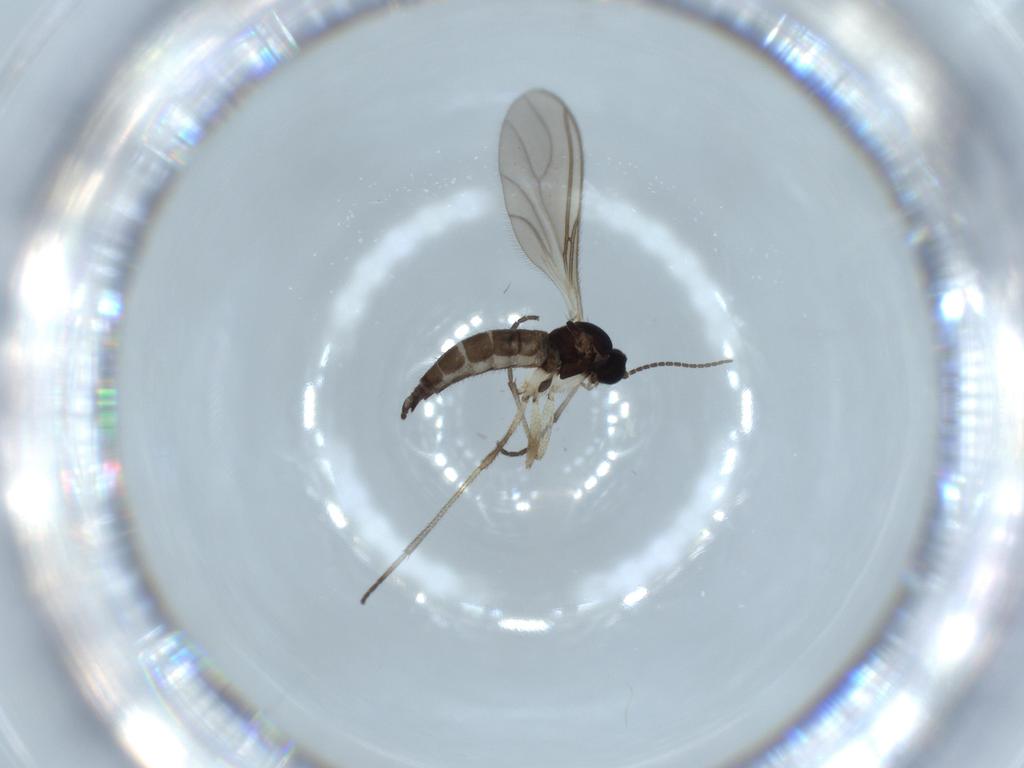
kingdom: Animalia
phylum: Arthropoda
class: Insecta
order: Diptera
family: Sciaridae
